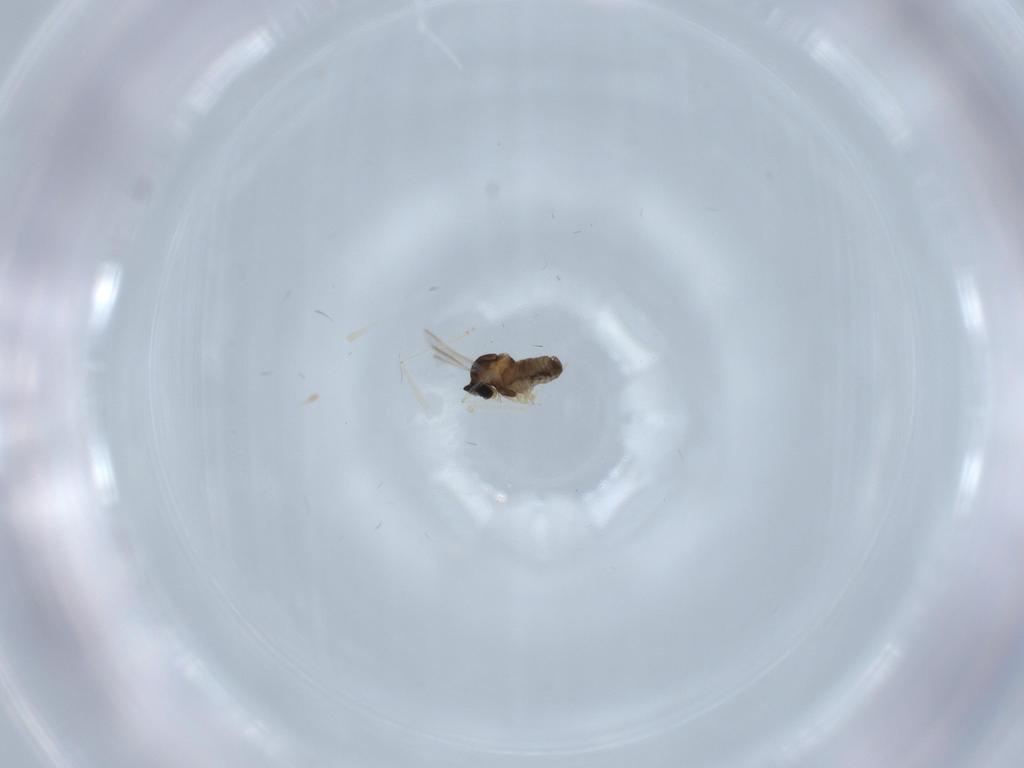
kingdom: Animalia
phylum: Arthropoda
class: Insecta
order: Diptera
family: Cecidomyiidae
